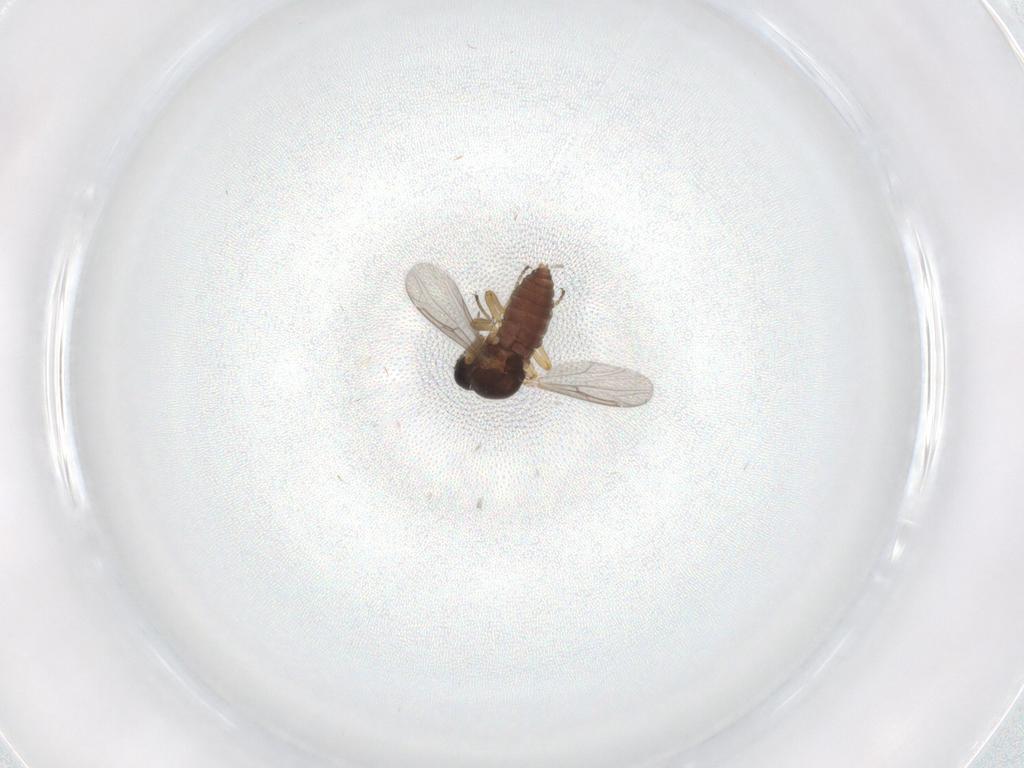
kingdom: Animalia
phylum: Arthropoda
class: Insecta
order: Diptera
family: Ceratopogonidae
